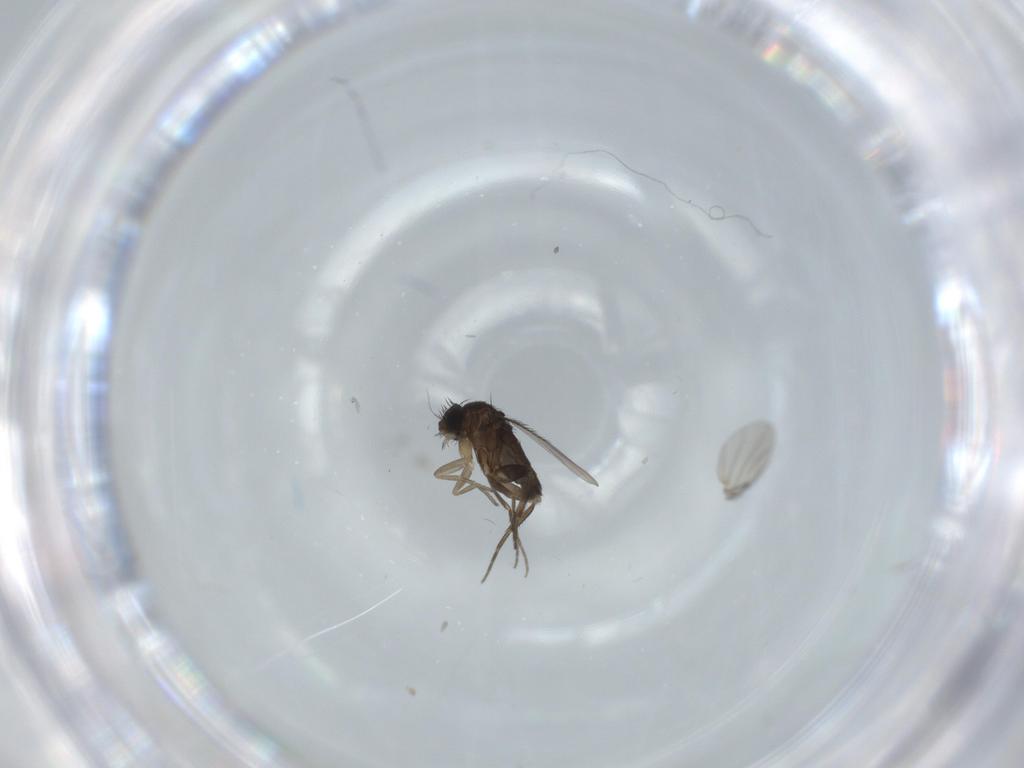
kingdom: Animalia
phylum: Arthropoda
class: Insecta
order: Diptera
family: Phoridae
